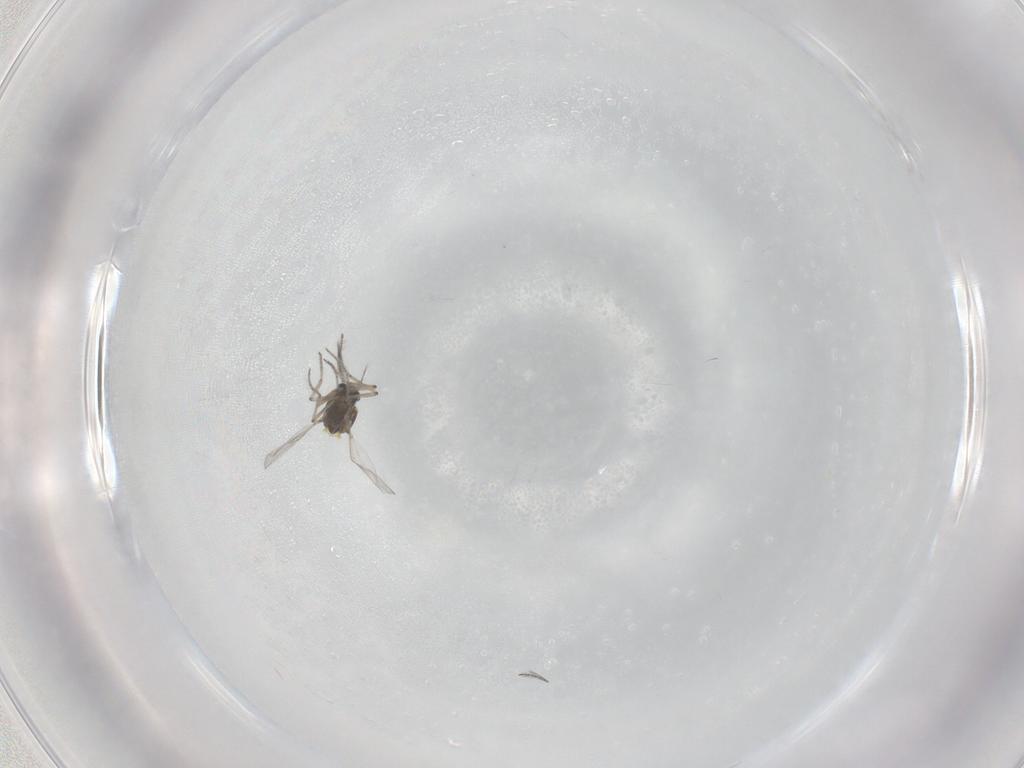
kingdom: Animalia
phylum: Arthropoda
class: Insecta
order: Diptera
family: Ceratopogonidae
